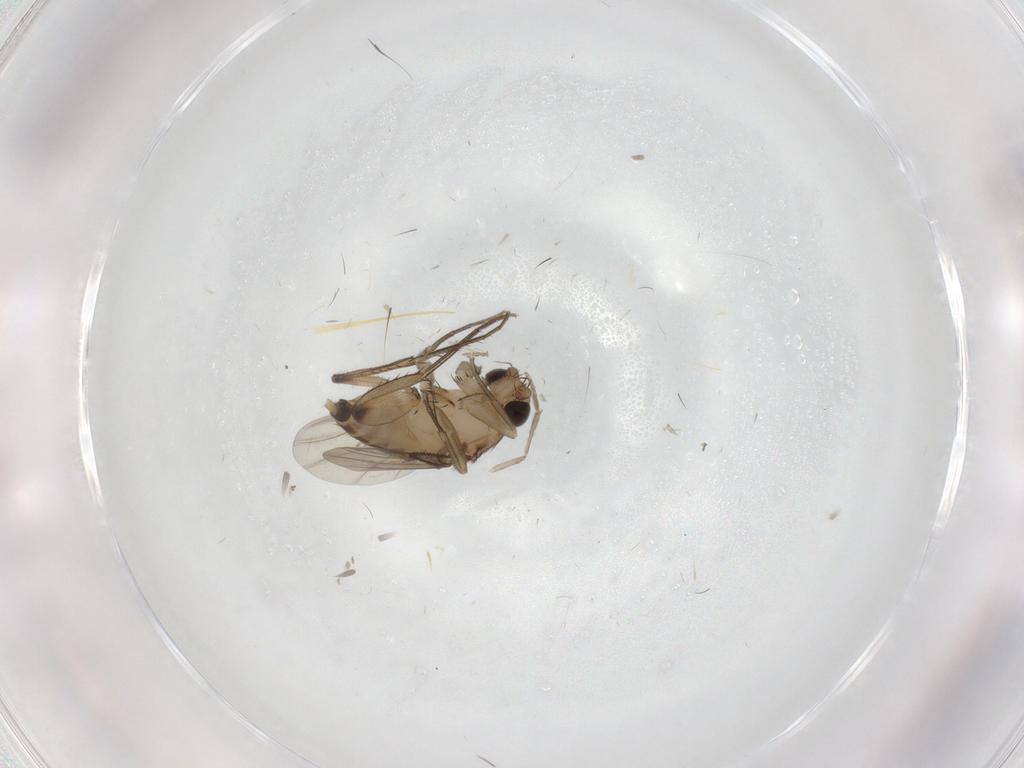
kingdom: Animalia
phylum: Arthropoda
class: Insecta
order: Diptera
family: Psychodidae
